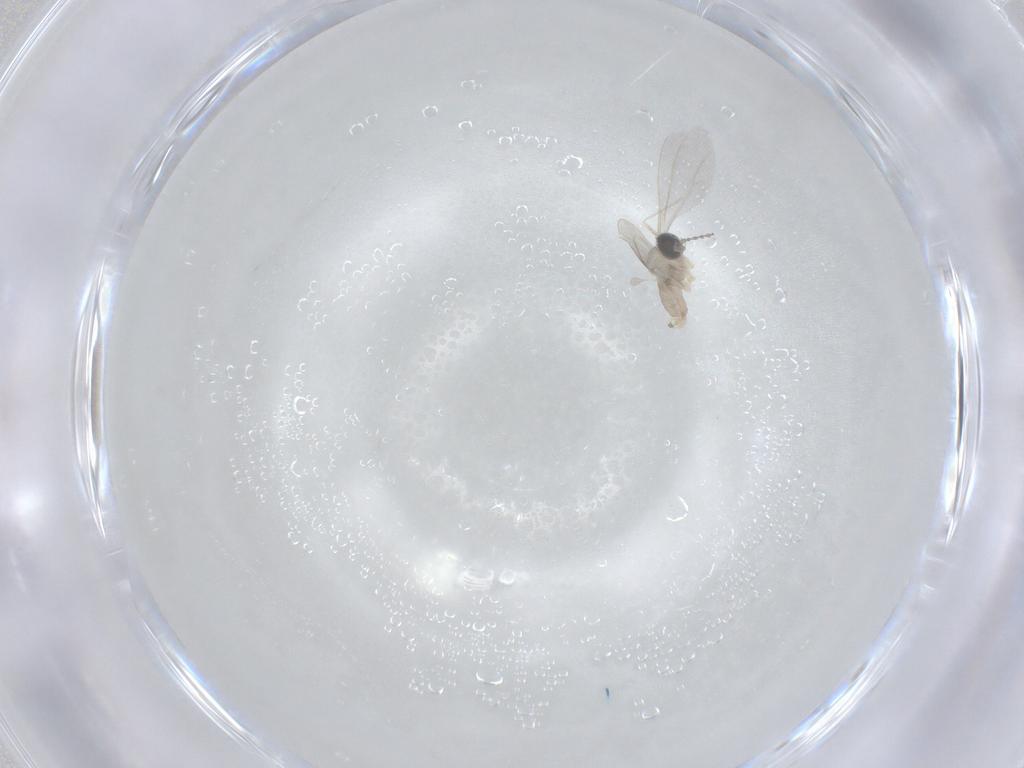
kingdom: Animalia
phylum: Arthropoda
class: Insecta
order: Diptera
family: Cecidomyiidae
